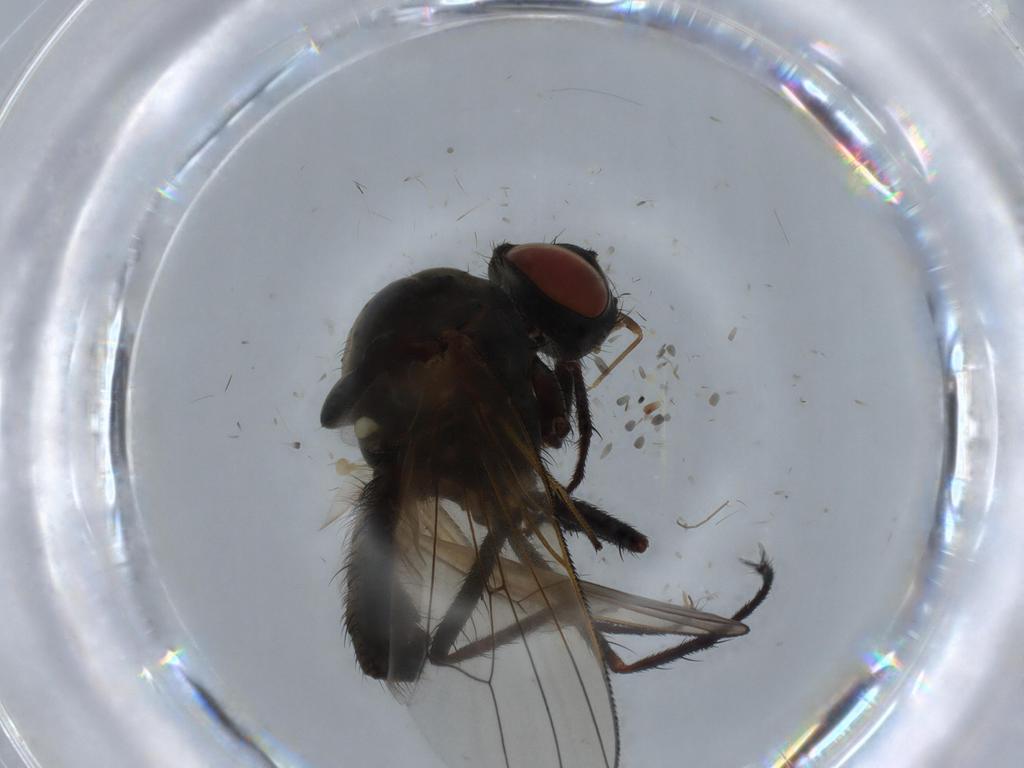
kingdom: Animalia
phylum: Arthropoda
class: Insecta
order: Diptera
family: Anthomyiidae
